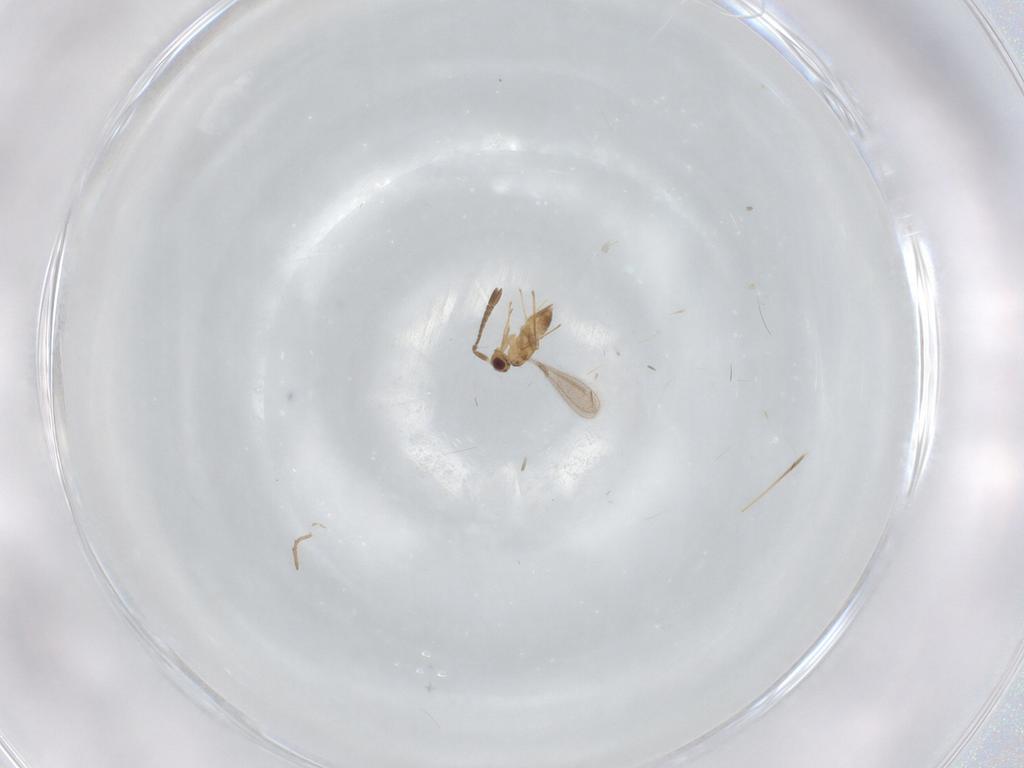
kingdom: Animalia
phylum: Arthropoda
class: Insecta
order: Hymenoptera
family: Mymaridae
